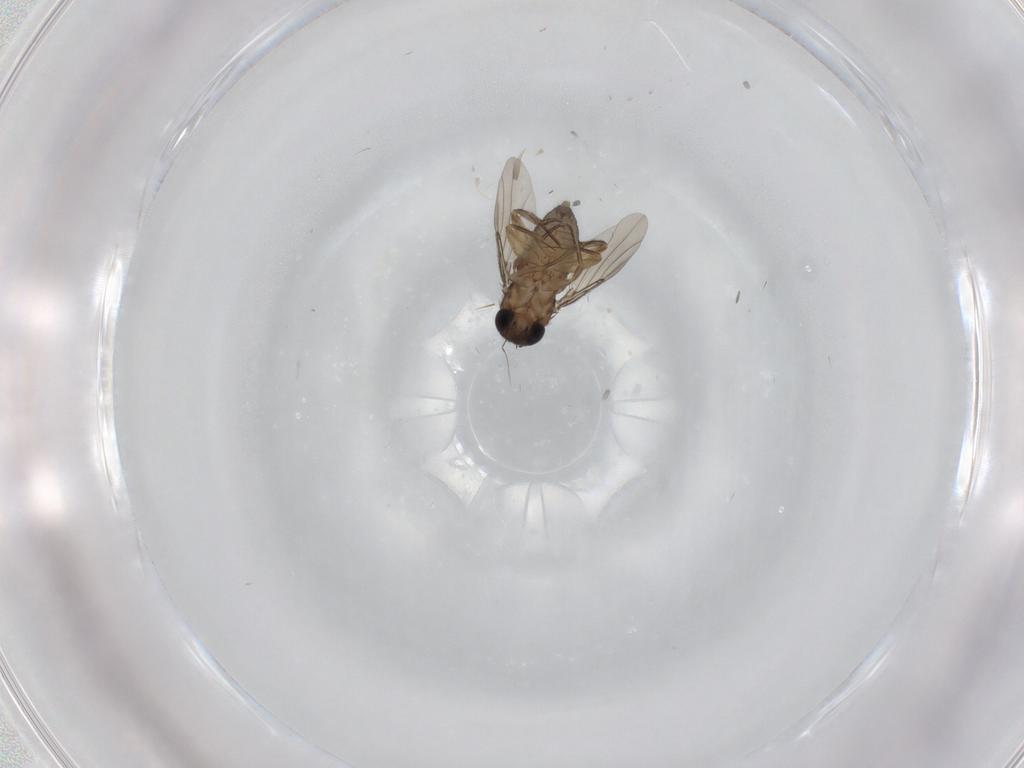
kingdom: Animalia
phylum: Arthropoda
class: Insecta
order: Diptera
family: Phoridae
